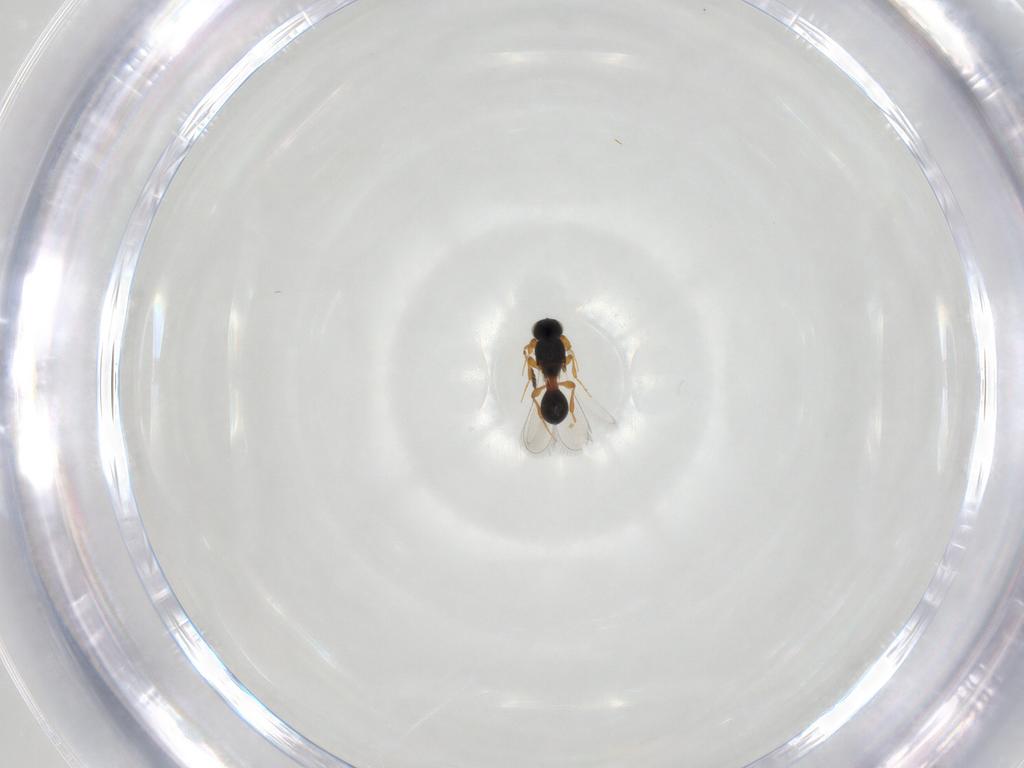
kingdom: Animalia
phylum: Arthropoda
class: Insecta
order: Hymenoptera
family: Platygastridae
